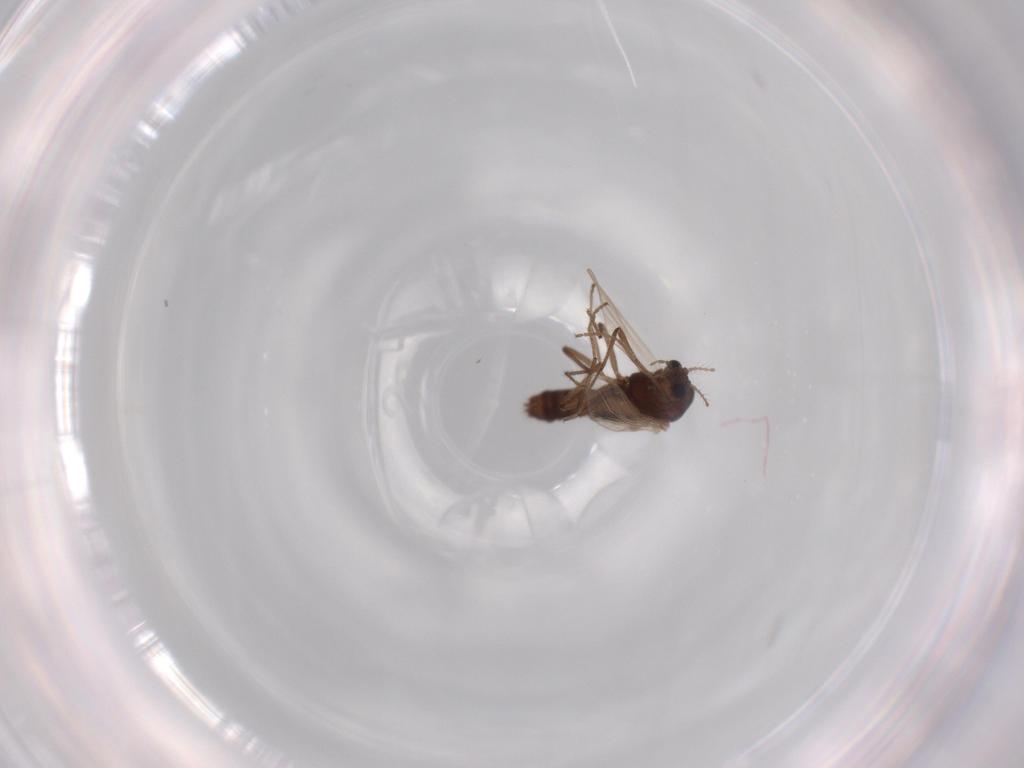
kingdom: Animalia
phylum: Arthropoda
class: Insecta
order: Diptera
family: Chironomidae
